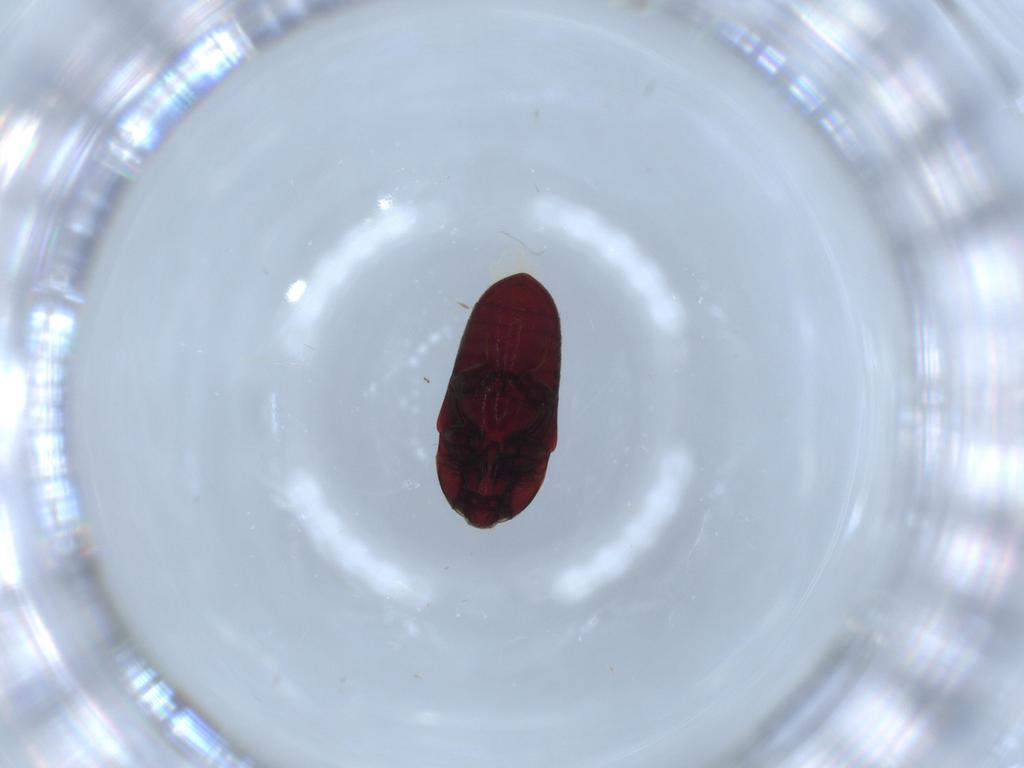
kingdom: Animalia
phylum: Arthropoda
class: Insecta
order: Coleoptera
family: Throscidae
